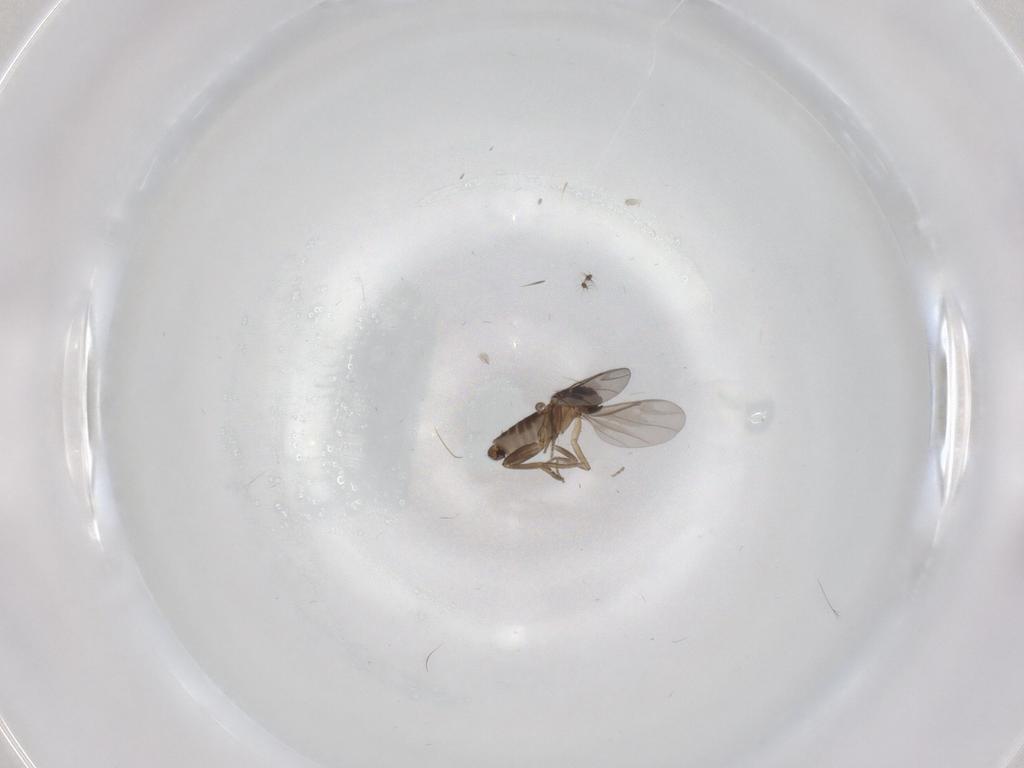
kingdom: Animalia
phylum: Arthropoda
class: Insecta
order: Diptera
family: Sciaridae
